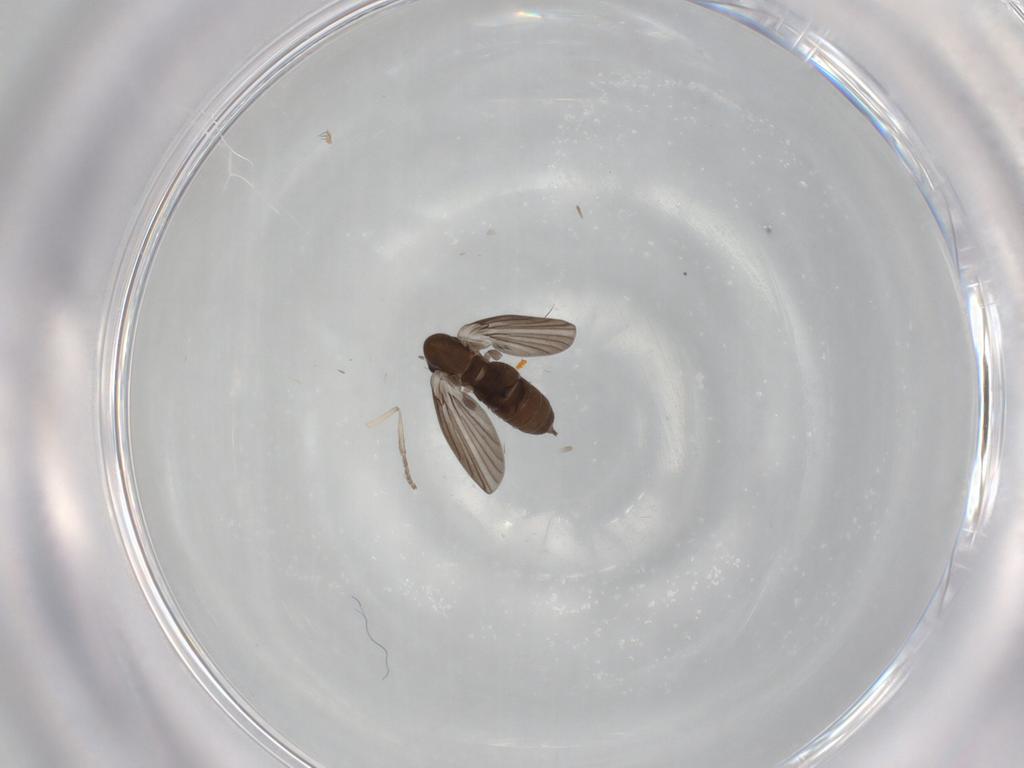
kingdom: Animalia
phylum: Arthropoda
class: Insecta
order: Diptera
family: Psychodidae
